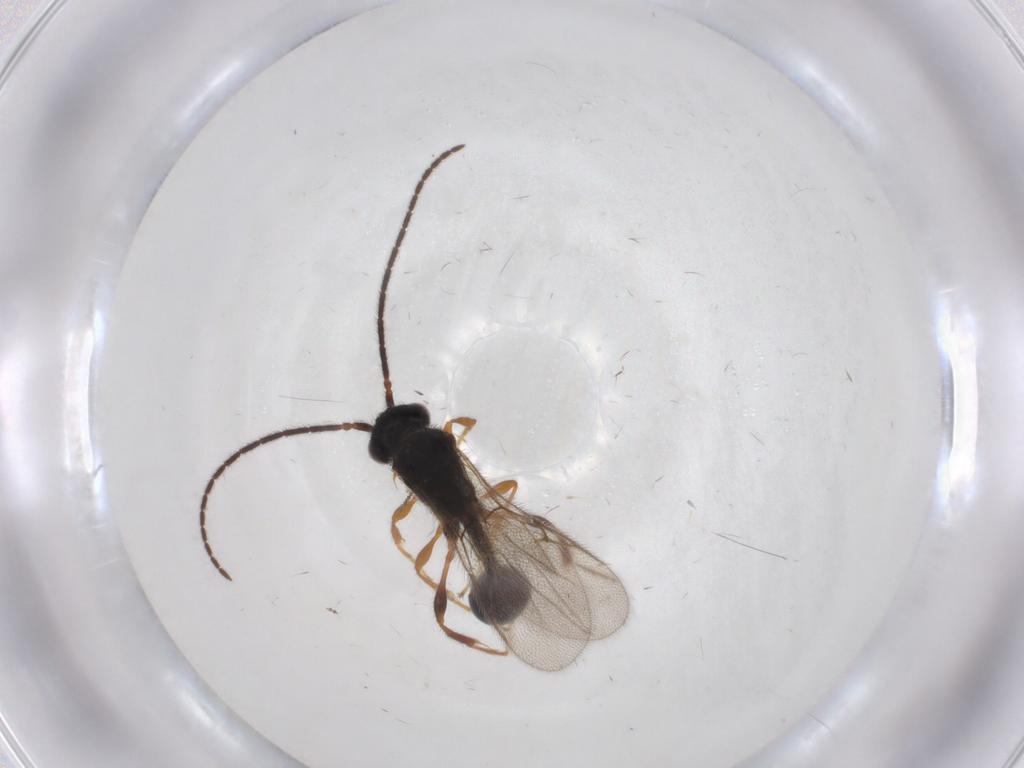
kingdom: Animalia
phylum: Arthropoda
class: Insecta
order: Hymenoptera
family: Diapriidae
